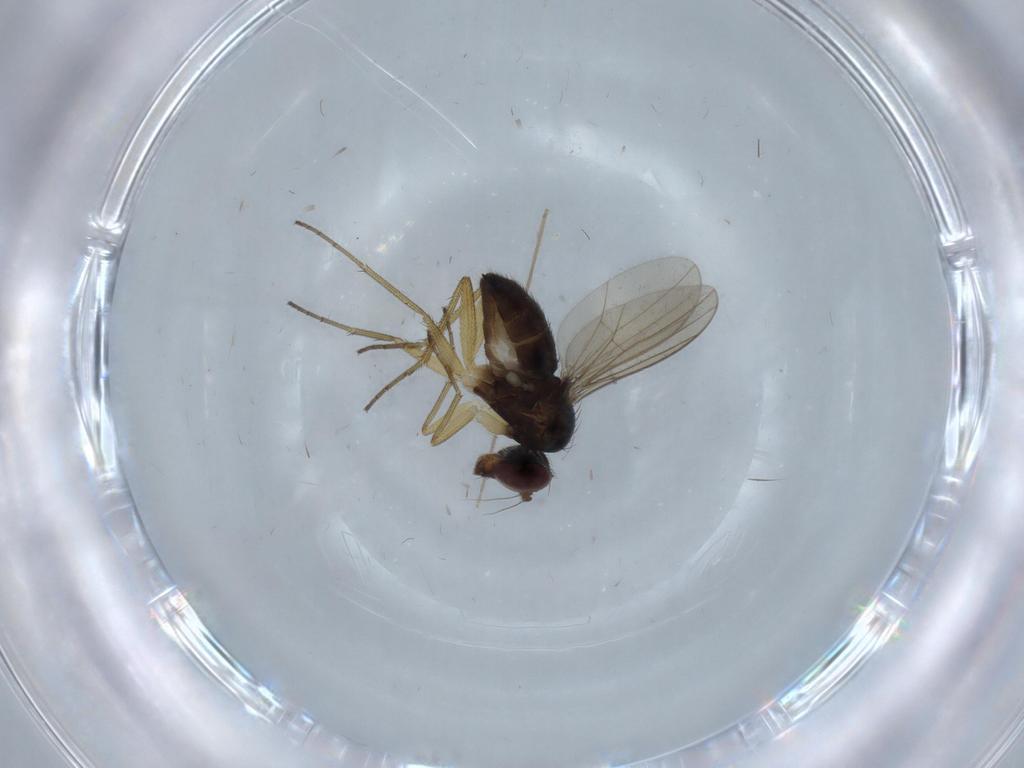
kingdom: Animalia
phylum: Arthropoda
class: Insecta
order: Diptera
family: Dolichopodidae
